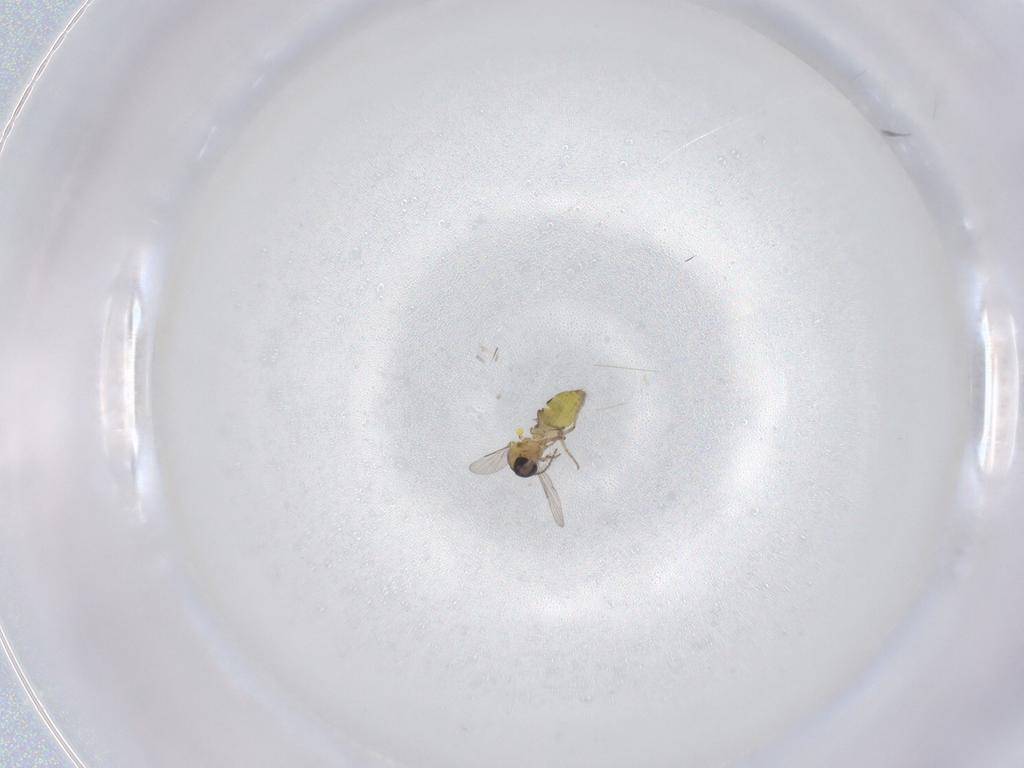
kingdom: Animalia
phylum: Arthropoda
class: Insecta
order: Diptera
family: Ceratopogonidae
